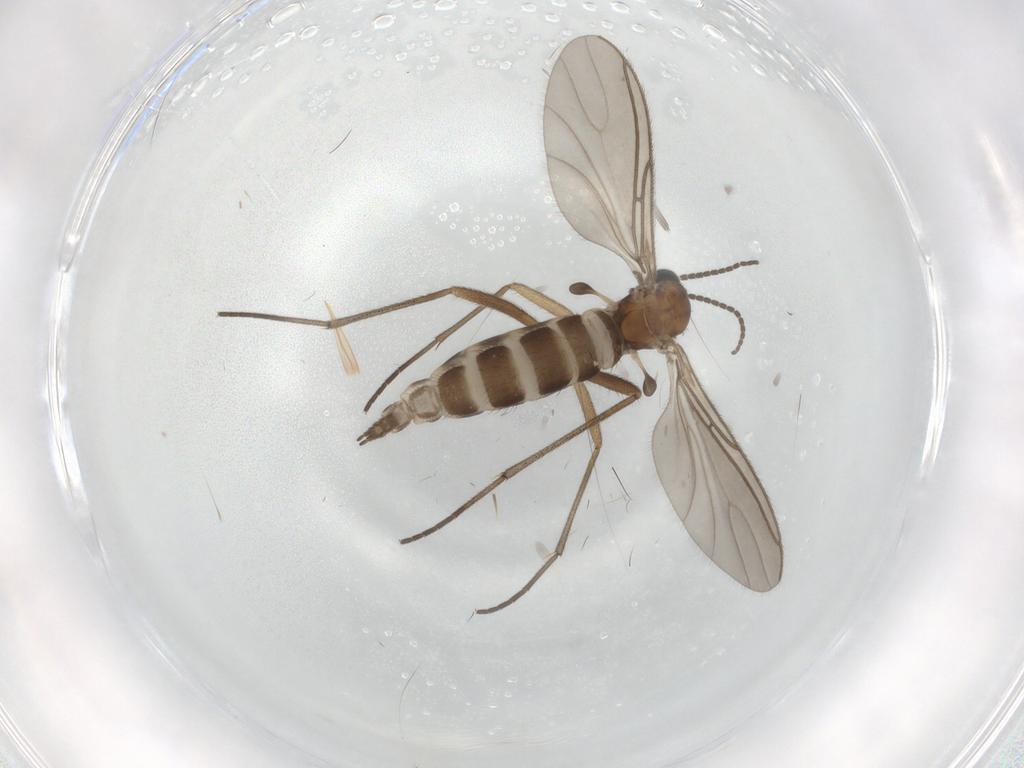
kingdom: Animalia
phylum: Arthropoda
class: Insecta
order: Diptera
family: Sciaridae
